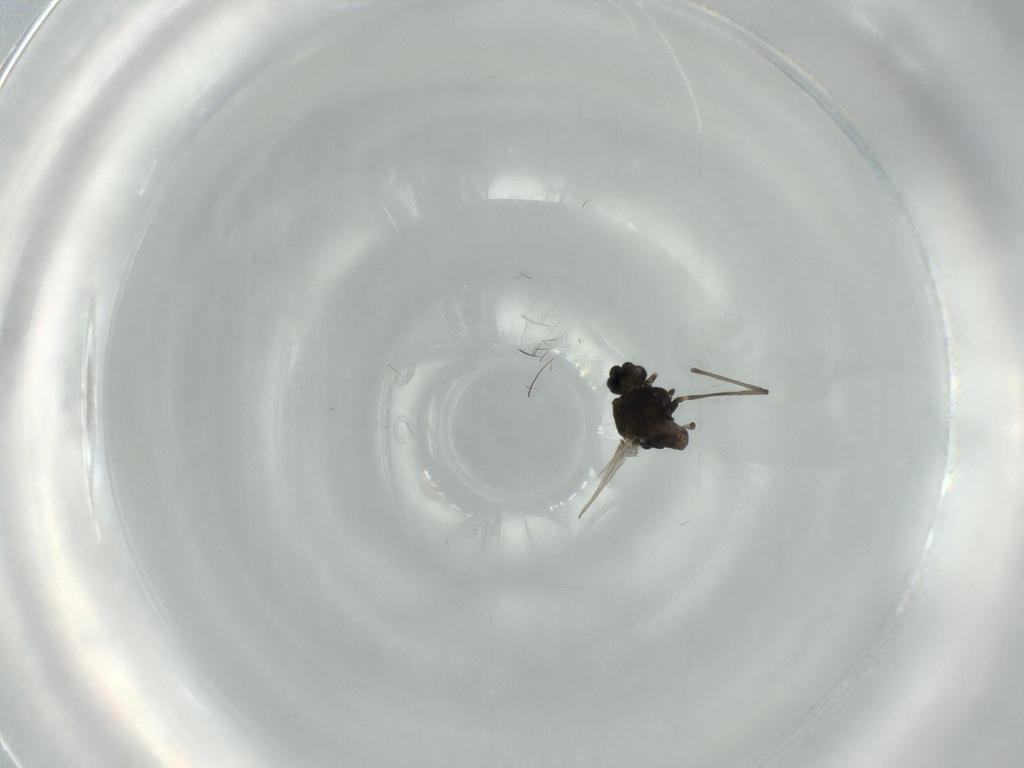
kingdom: Animalia
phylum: Arthropoda
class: Insecta
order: Diptera
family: Chironomidae
